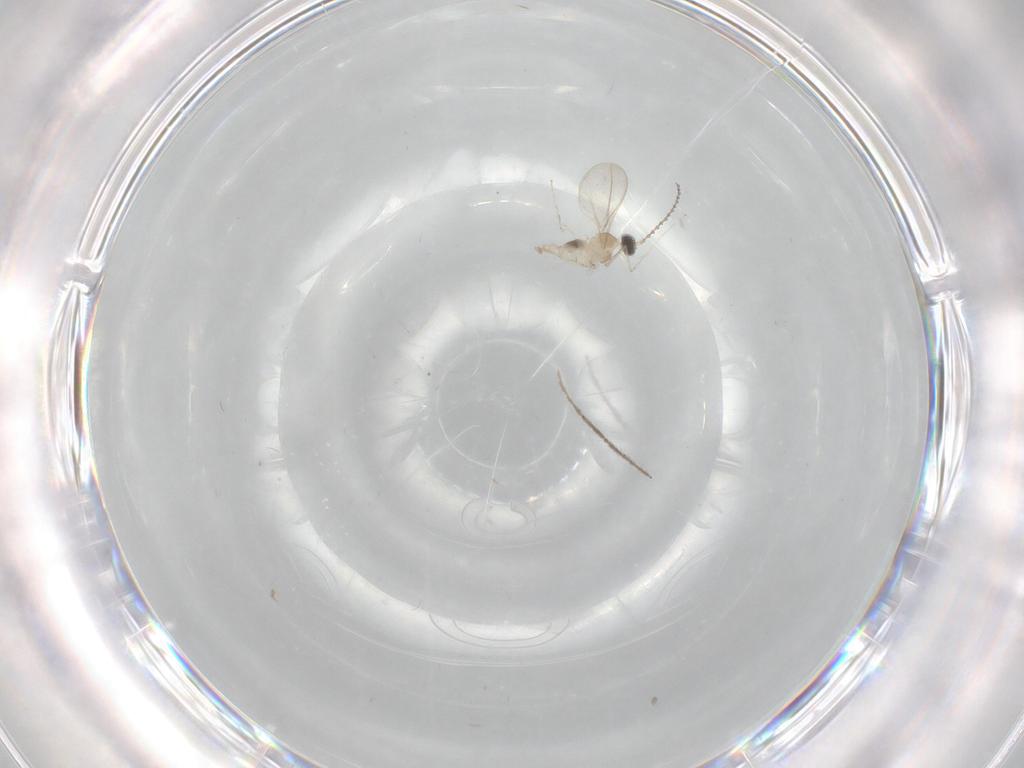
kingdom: Animalia
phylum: Arthropoda
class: Insecta
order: Diptera
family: Cecidomyiidae
